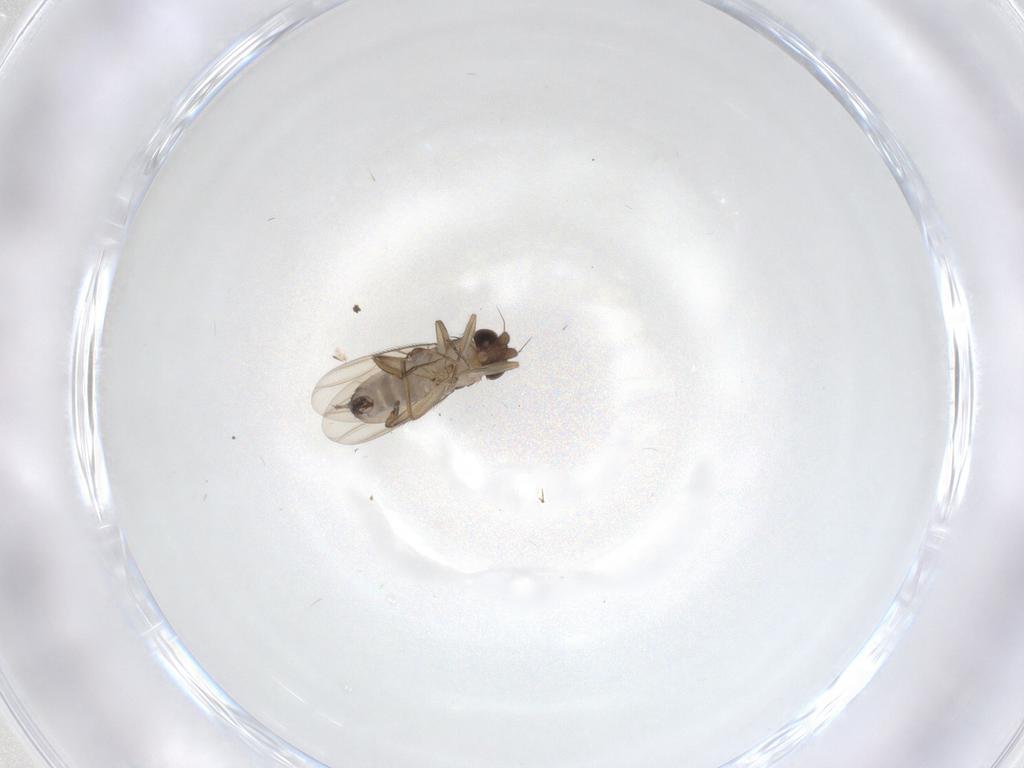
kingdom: Animalia
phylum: Arthropoda
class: Insecta
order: Diptera
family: Phoridae
